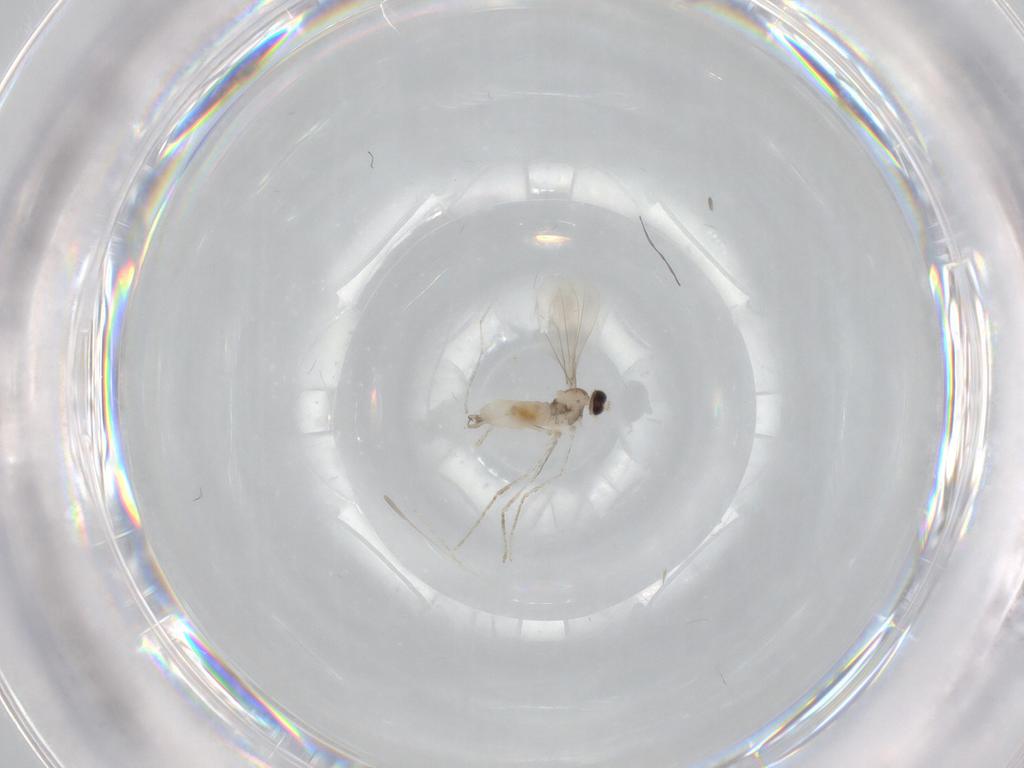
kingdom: Animalia
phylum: Arthropoda
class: Insecta
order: Diptera
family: Cecidomyiidae
